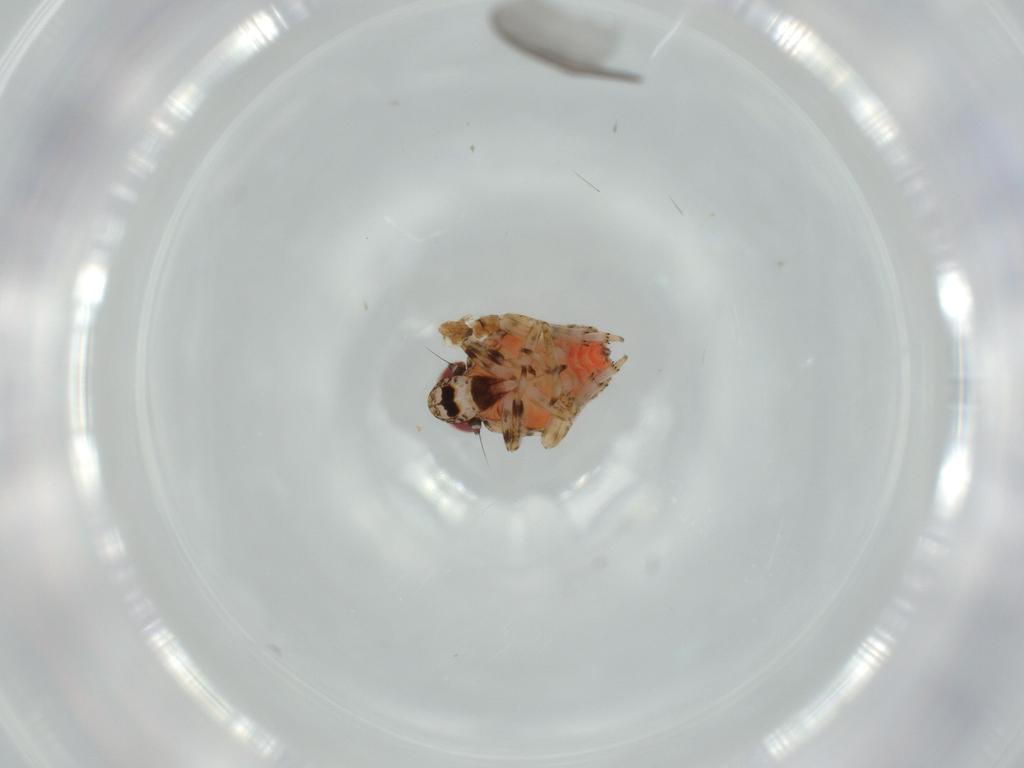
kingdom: Animalia
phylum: Arthropoda
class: Insecta
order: Hemiptera
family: Issidae
